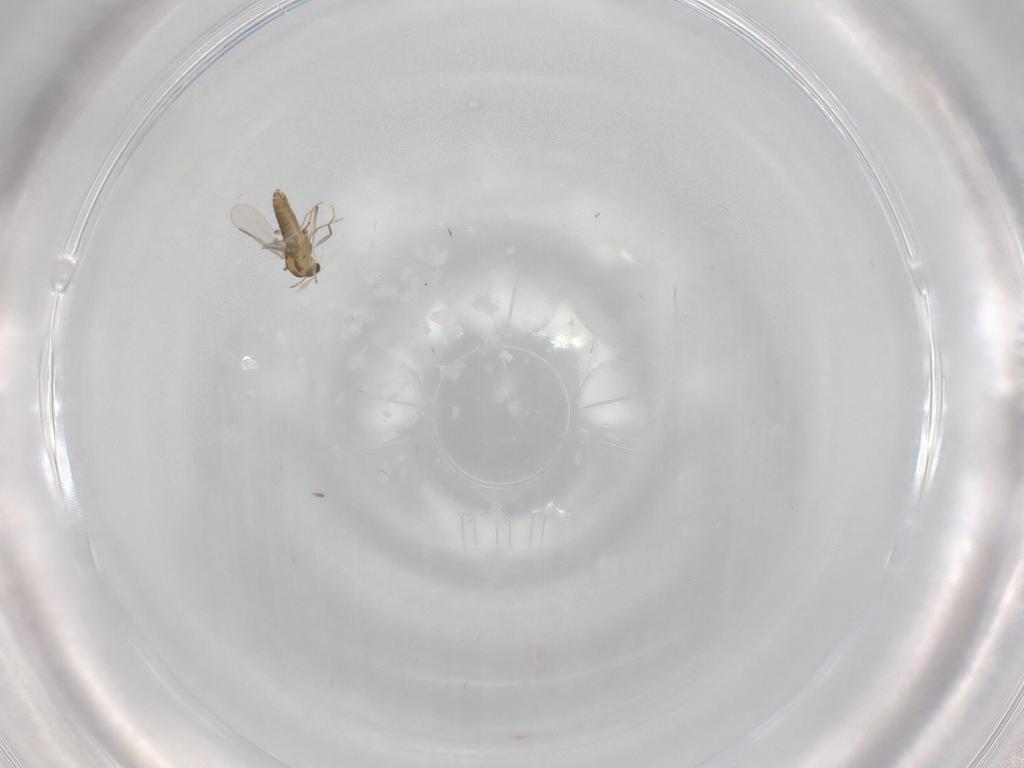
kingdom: Animalia
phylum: Arthropoda
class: Insecta
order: Diptera
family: Chironomidae
